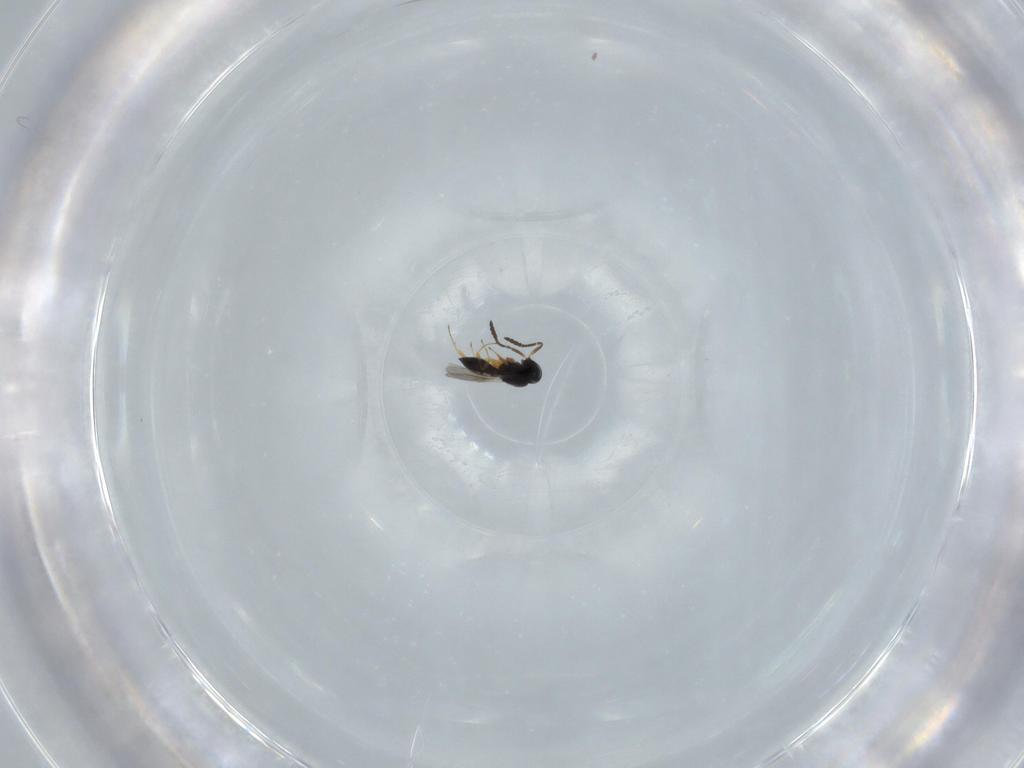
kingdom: Animalia
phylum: Arthropoda
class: Insecta
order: Hymenoptera
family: Scelionidae
